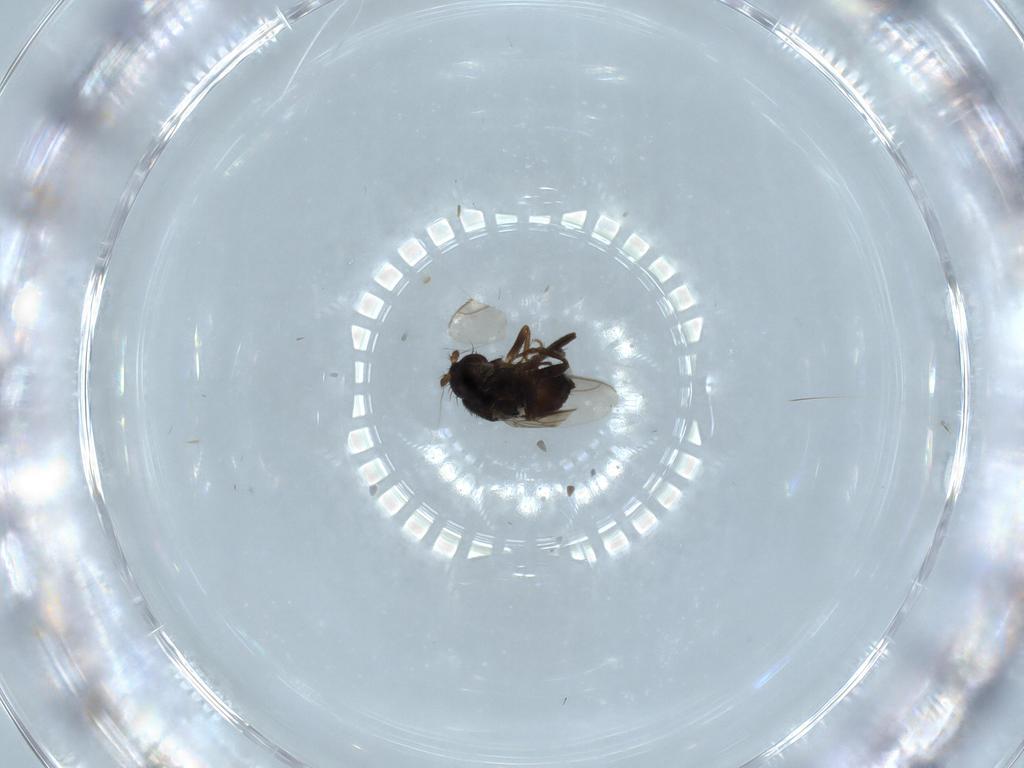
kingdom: Animalia
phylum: Arthropoda
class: Insecta
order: Diptera
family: Sphaeroceridae
